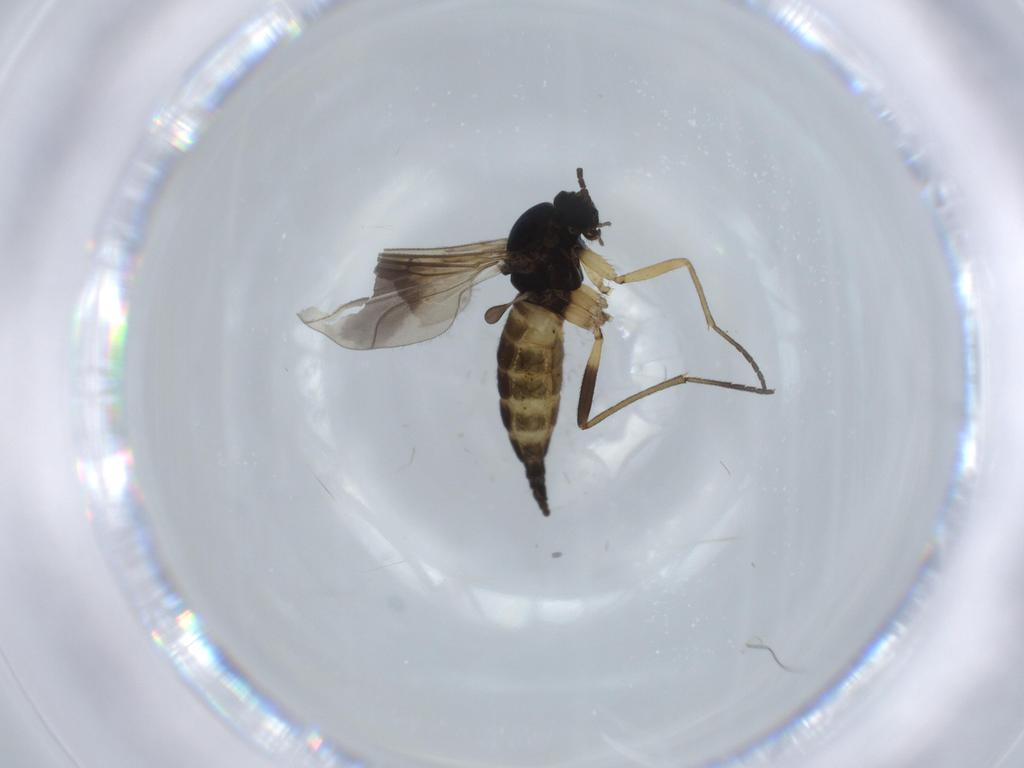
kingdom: Animalia
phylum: Arthropoda
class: Insecta
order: Diptera
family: Sciaridae
